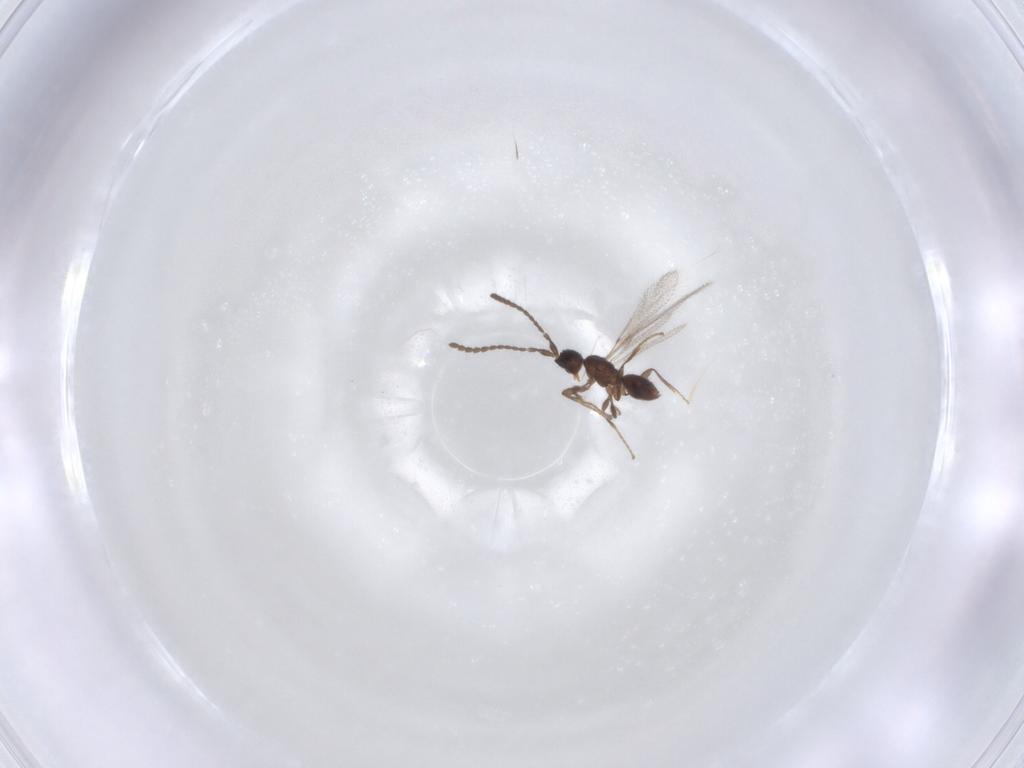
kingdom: Animalia
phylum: Arthropoda
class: Insecta
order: Hymenoptera
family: Diapriidae
